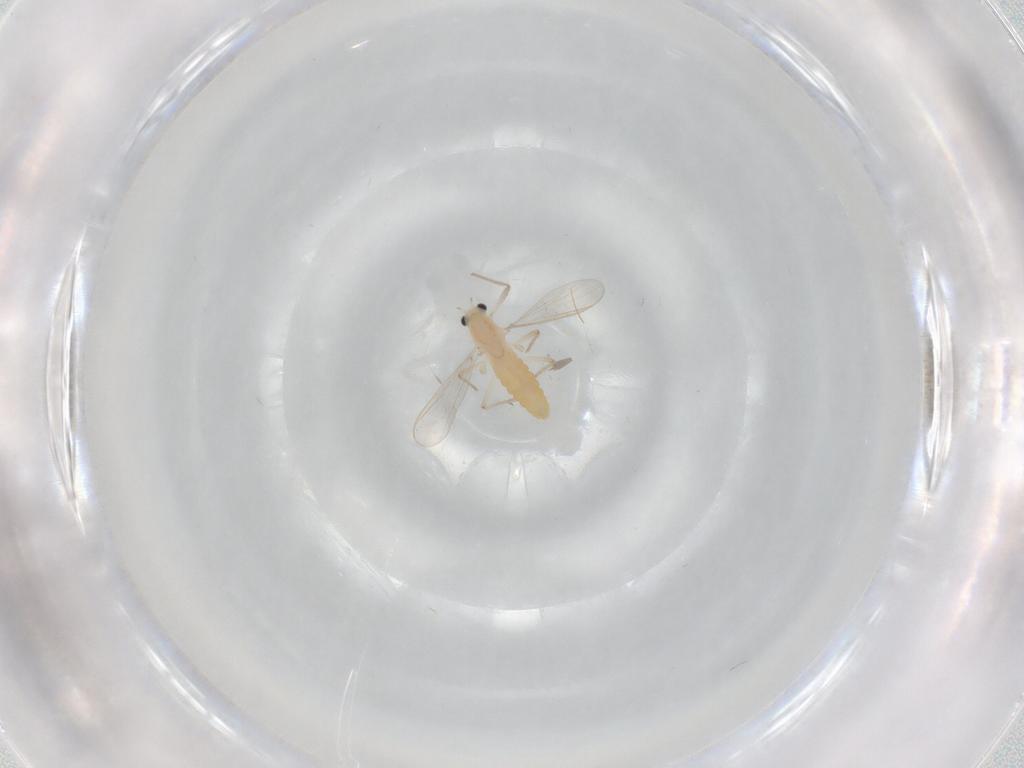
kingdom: Animalia
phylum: Arthropoda
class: Insecta
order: Diptera
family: Chironomidae
